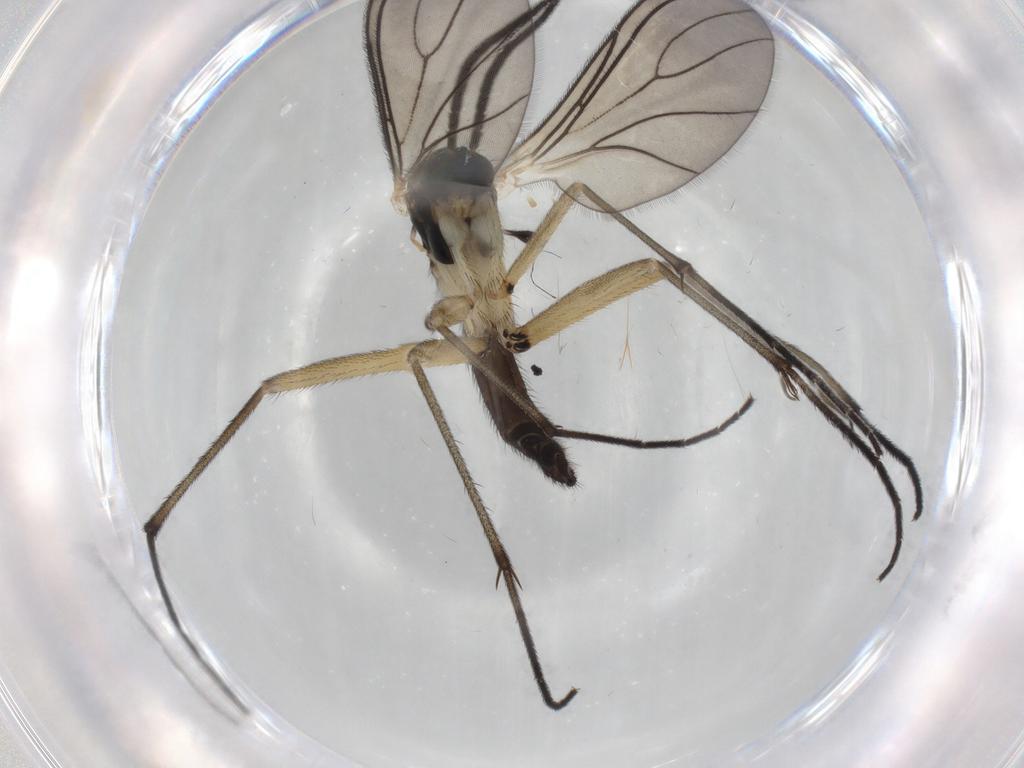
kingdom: Animalia
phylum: Arthropoda
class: Insecta
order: Diptera
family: Sciaridae
